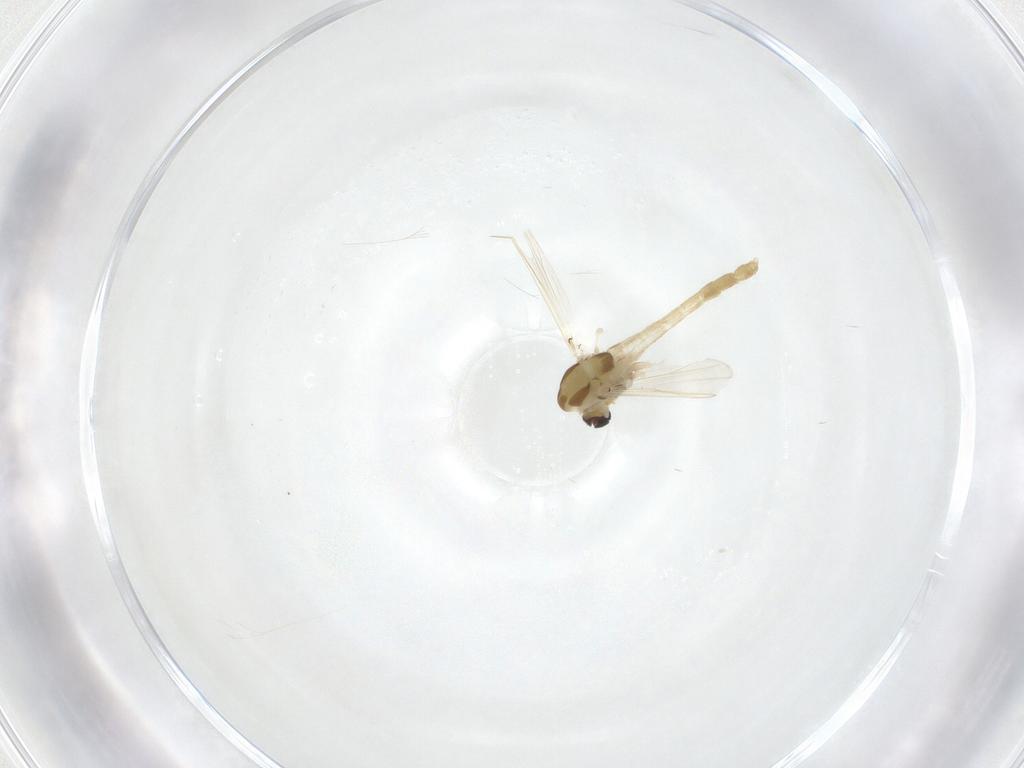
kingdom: Animalia
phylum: Arthropoda
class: Insecta
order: Diptera
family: Chironomidae
